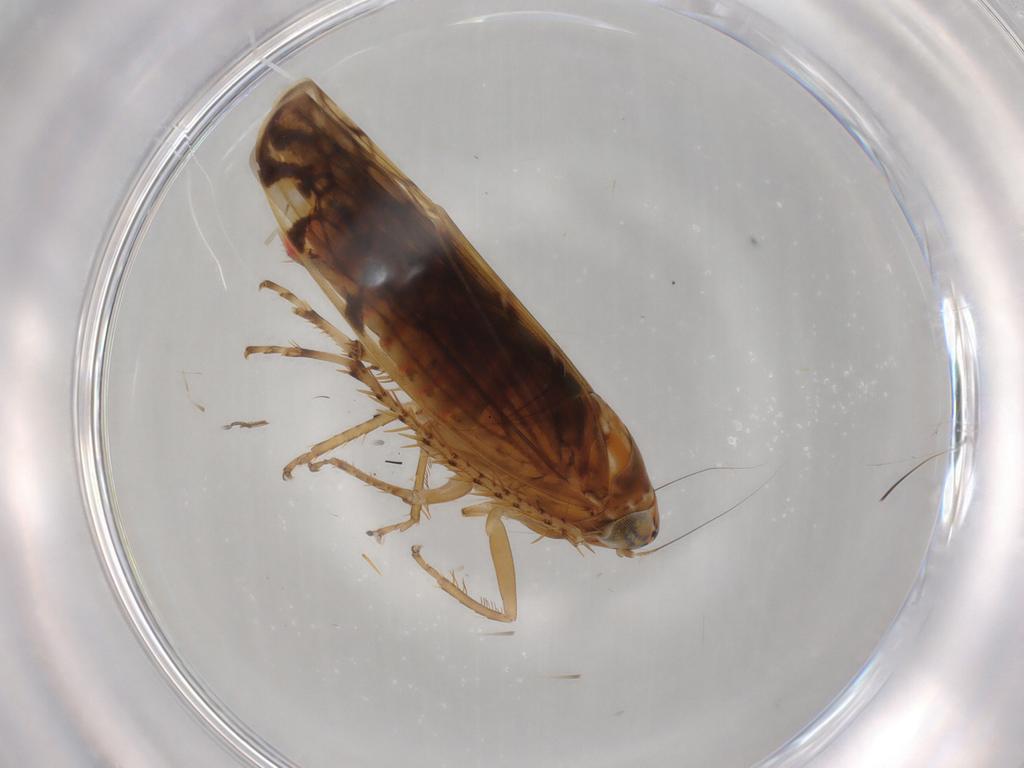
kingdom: Animalia
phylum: Arthropoda
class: Insecta
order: Hemiptera
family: Cicadellidae
